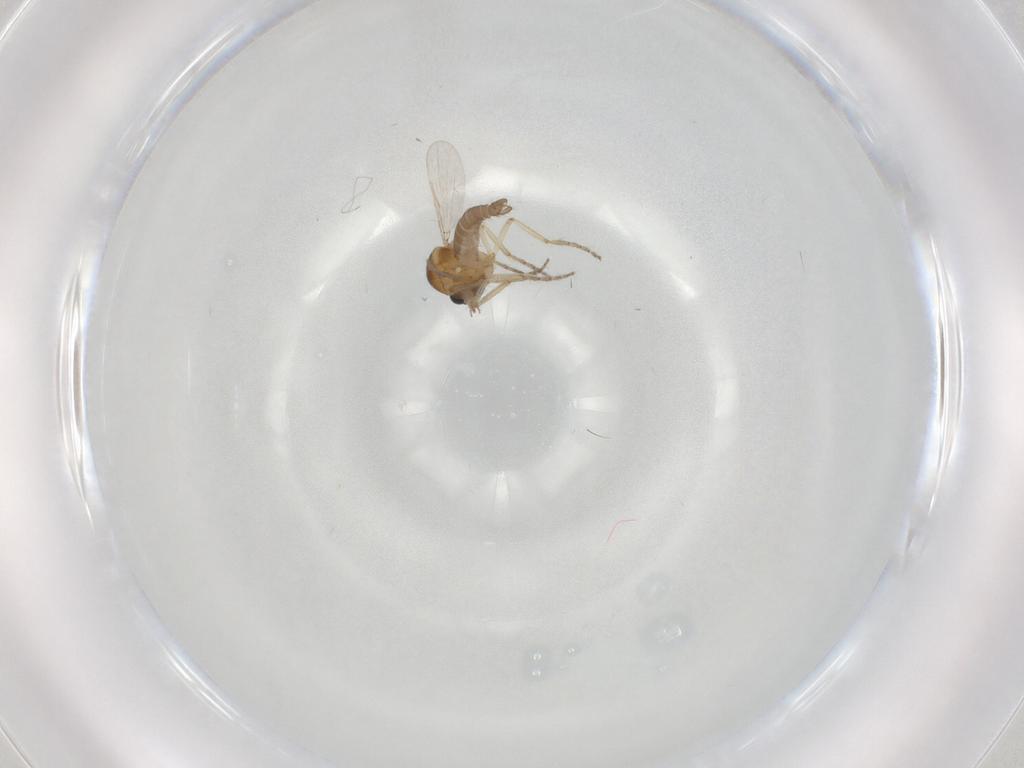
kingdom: Animalia
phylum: Arthropoda
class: Insecta
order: Diptera
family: Ceratopogonidae
